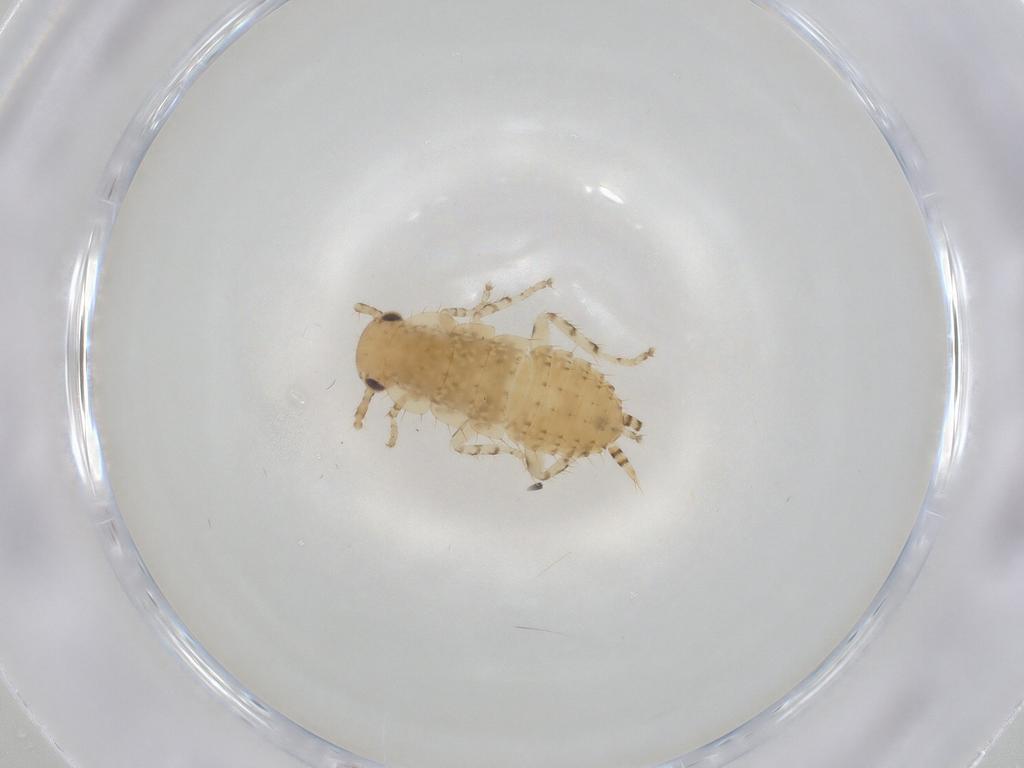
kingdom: Animalia
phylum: Arthropoda
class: Insecta
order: Blattodea
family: Ectobiidae
